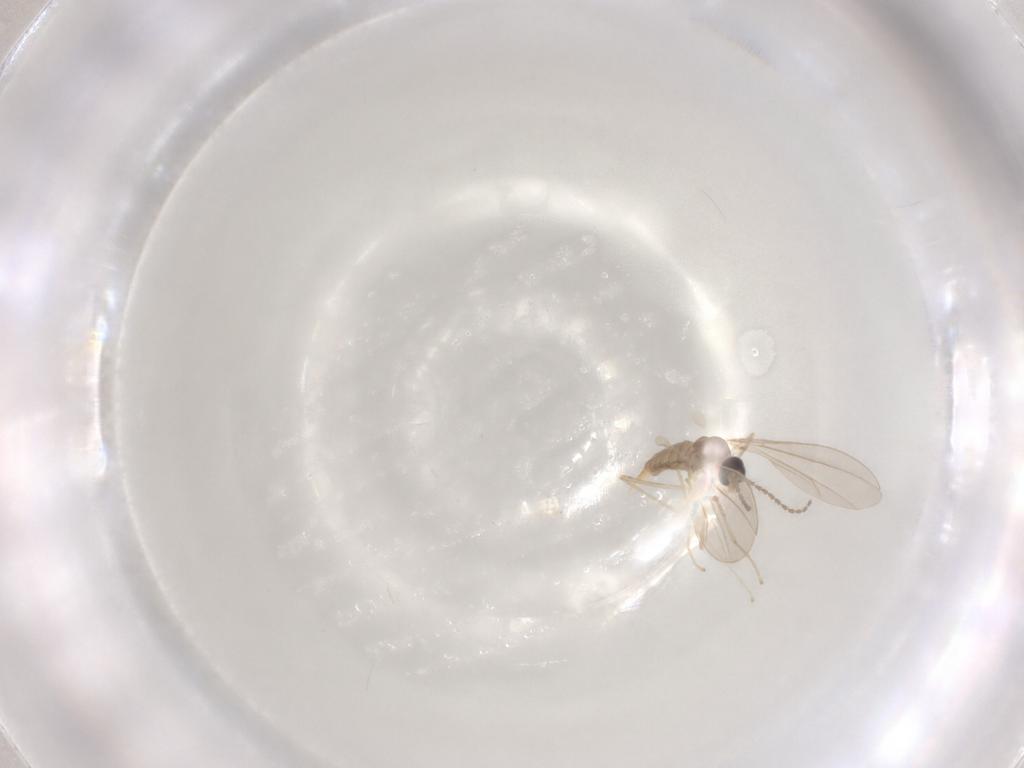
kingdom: Animalia
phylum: Arthropoda
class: Insecta
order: Diptera
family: Cecidomyiidae
